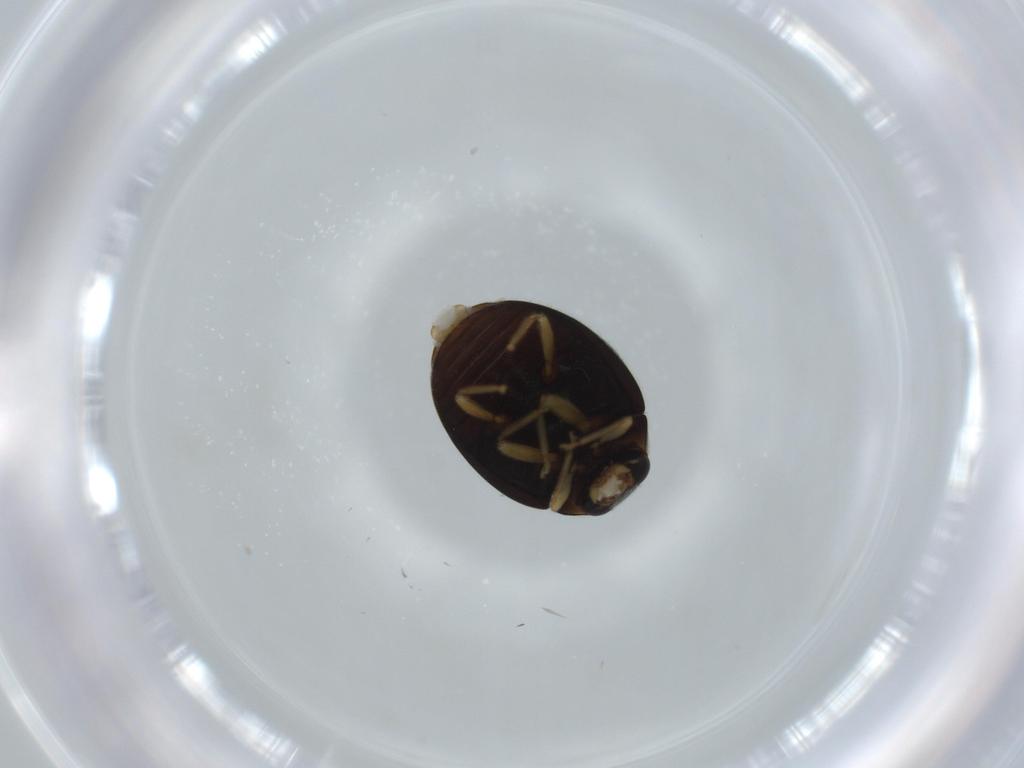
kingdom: Animalia
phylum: Arthropoda
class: Insecta
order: Coleoptera
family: Coccinellidae
